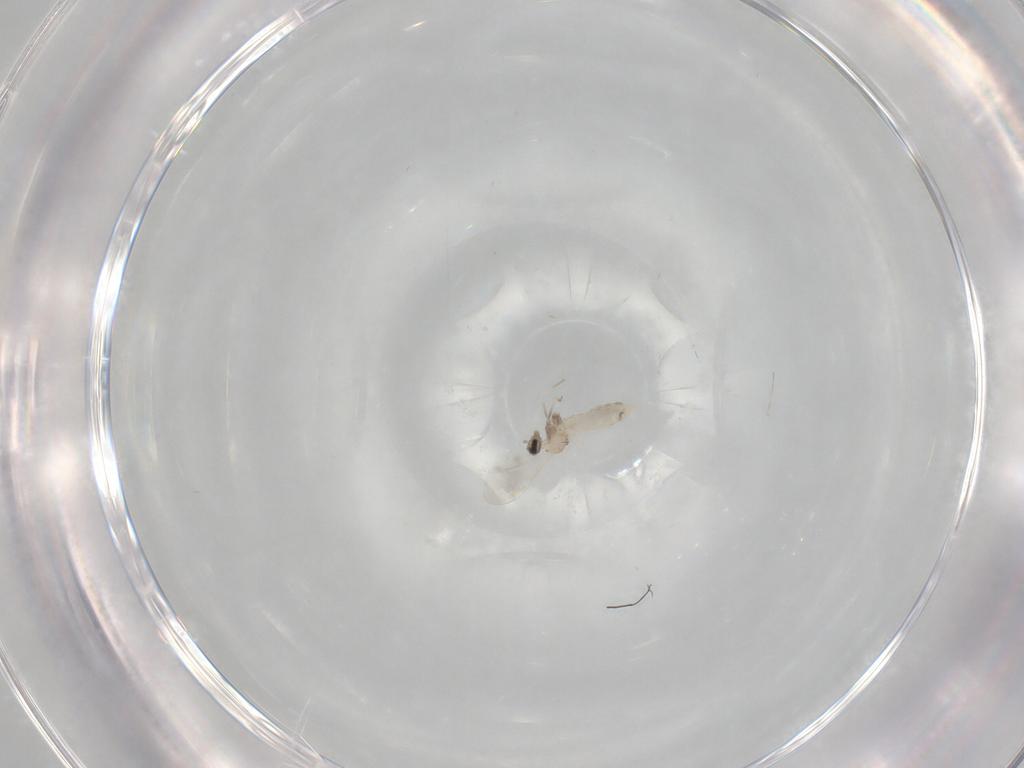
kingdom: Animalia
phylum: Arthropoda
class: Insecta
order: Diptera
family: Cecidomyiidae
